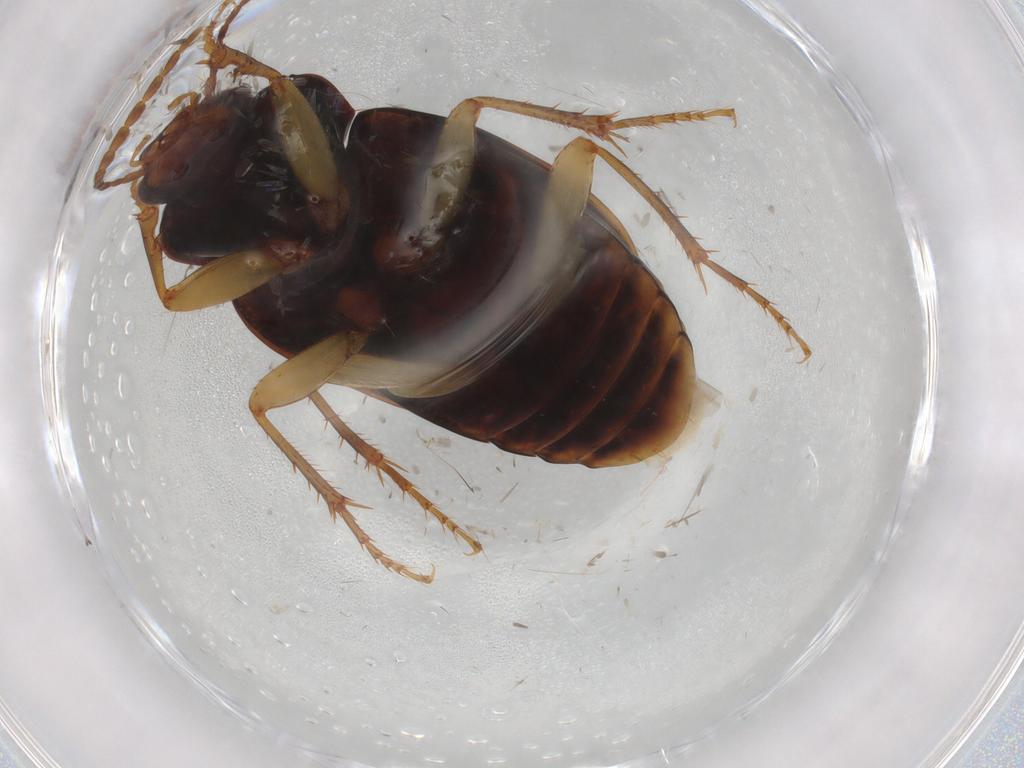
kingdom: Animalia
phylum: Arthropoda
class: Insecta
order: Coleoptera
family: Carabidae
